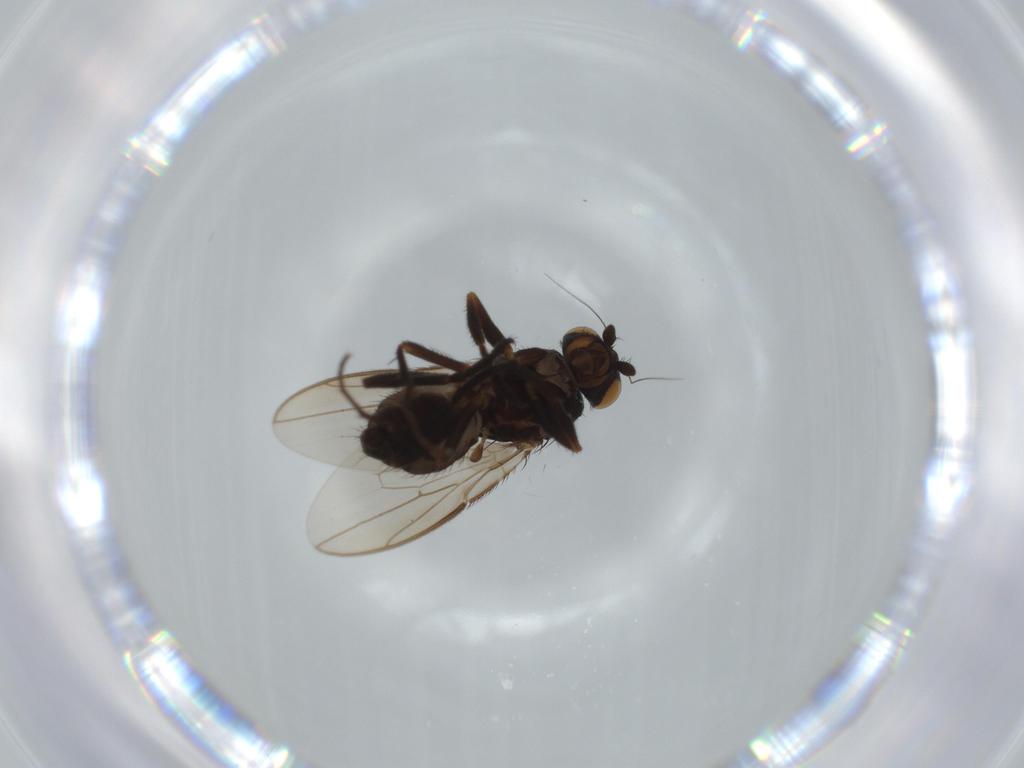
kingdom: Animalia
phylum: Arthropoda
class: Insecta
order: Diptera
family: Sphaeroceridae
